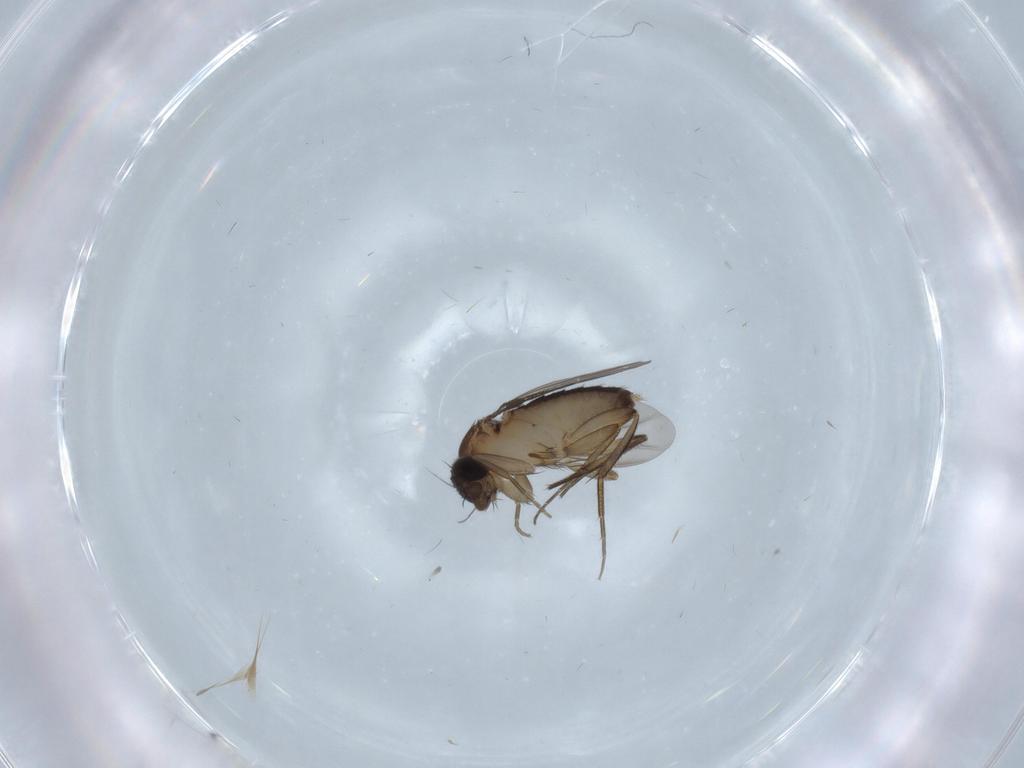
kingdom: Animalia
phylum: Arthropoda
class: Insecta
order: Diptera
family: Phoridae
